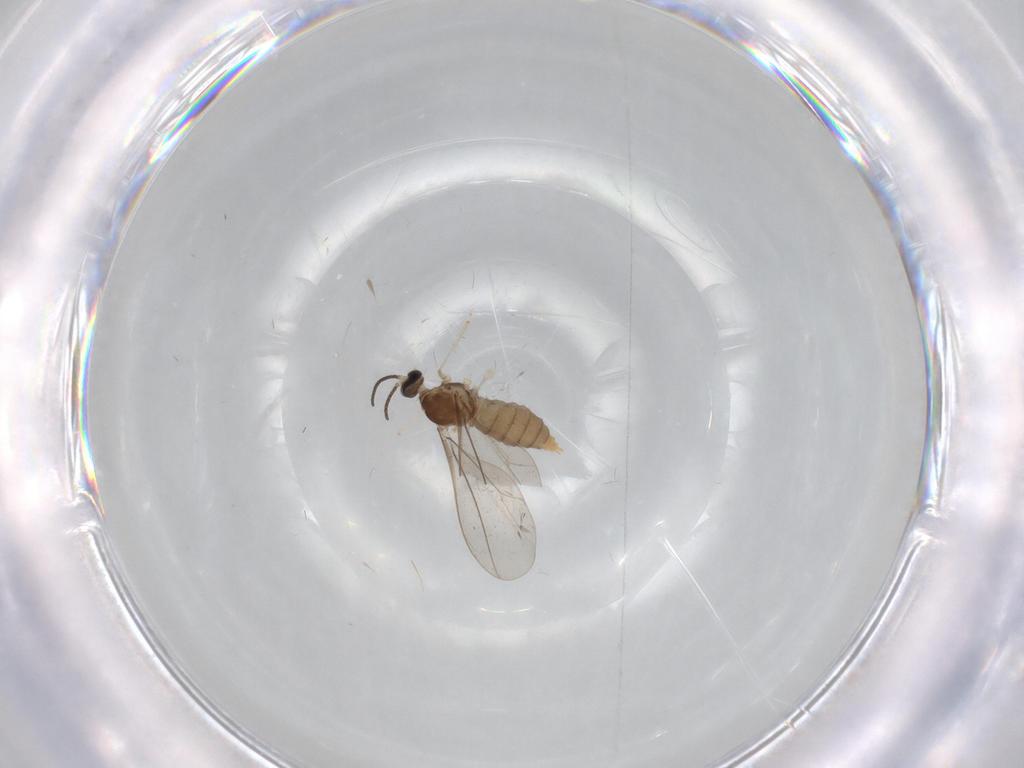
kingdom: Animalia
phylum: Arthropoda
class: Insecta
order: Diptera
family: Cecidomyiidae
